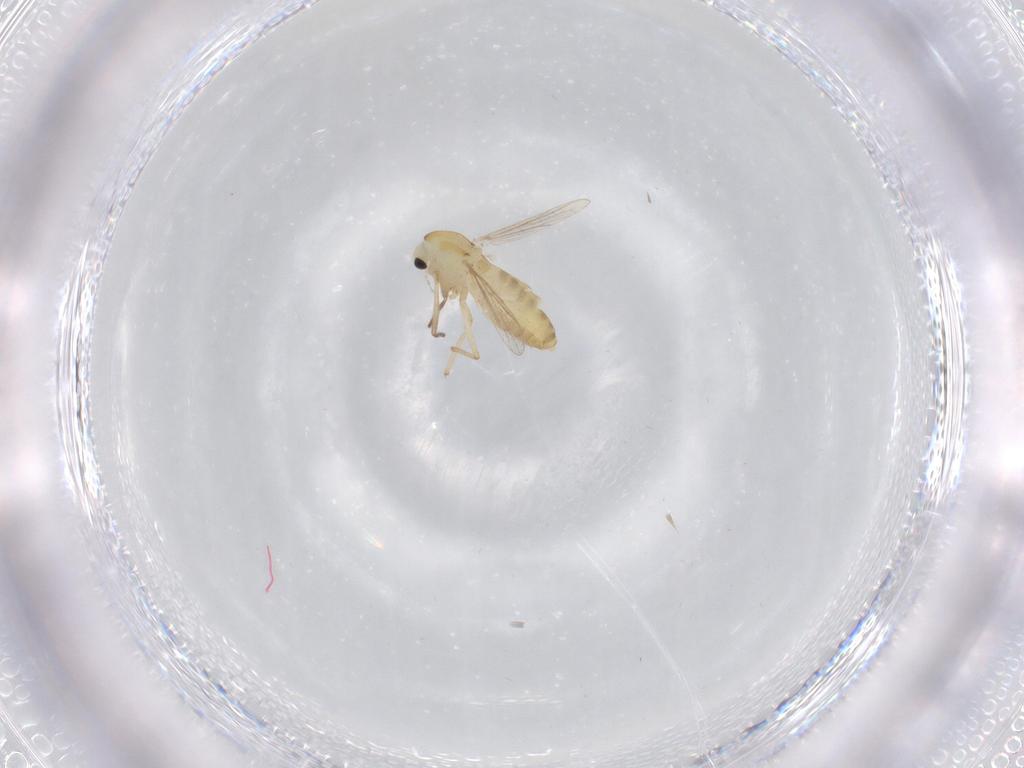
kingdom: Animalia
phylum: Arthropoda
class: Insecta
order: Diptera
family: Chironomidae
